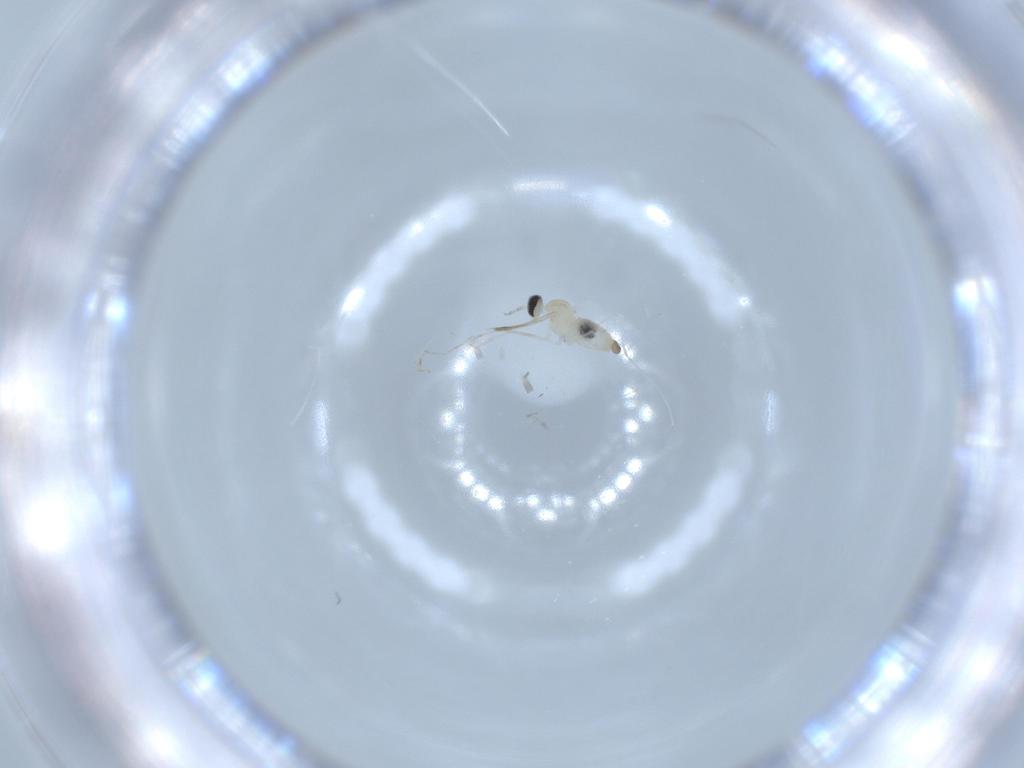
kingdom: Animalia
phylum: Arthropoda
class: Insecta
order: Diptera
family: Cecidomyiidae
